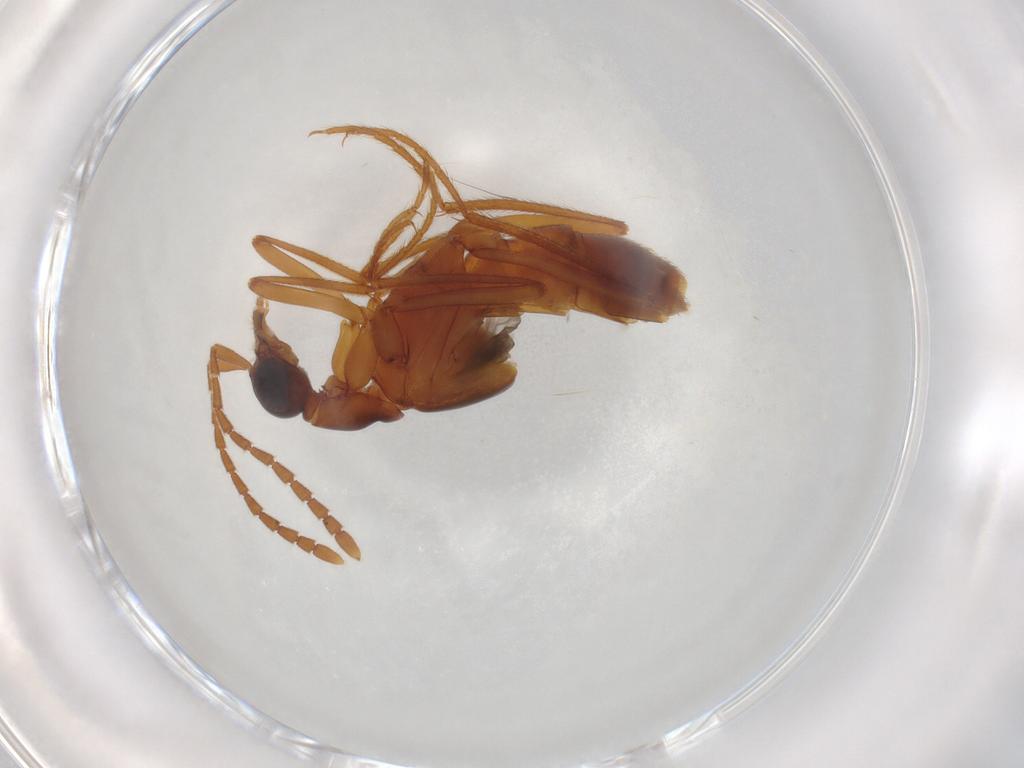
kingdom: Animalia
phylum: Arthropoda
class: Insecta
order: Coleoptera
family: Staphylinidae
